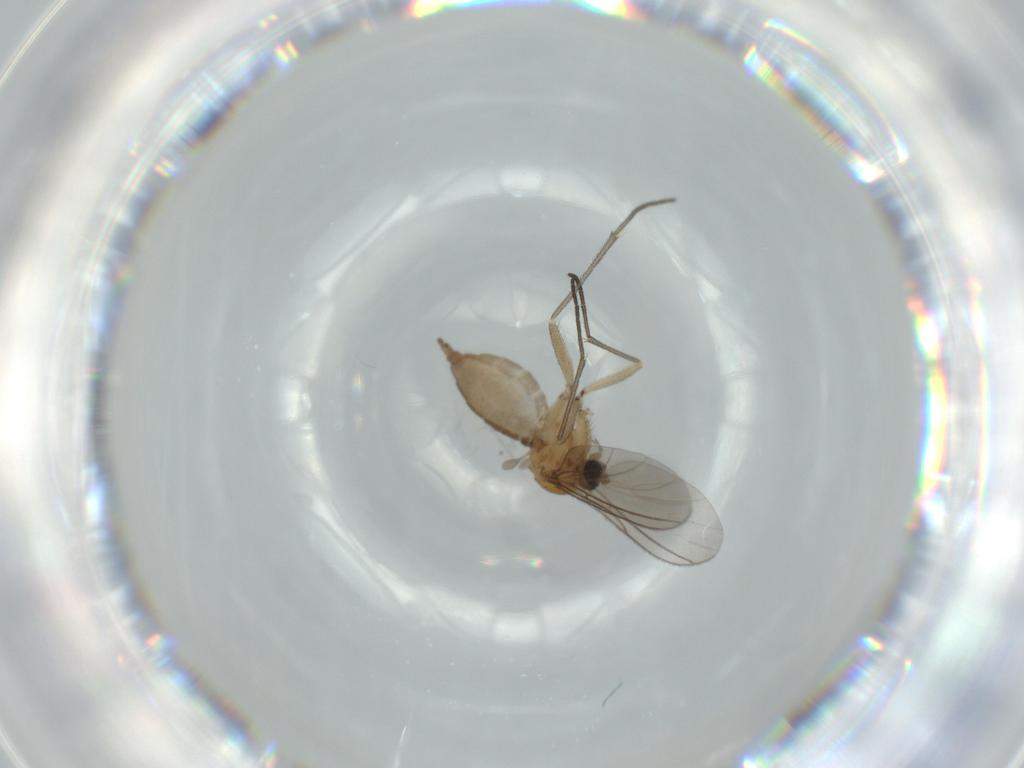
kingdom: Animalia
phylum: Arthropoda
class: Insecta
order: Diptera
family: Sciaridae
